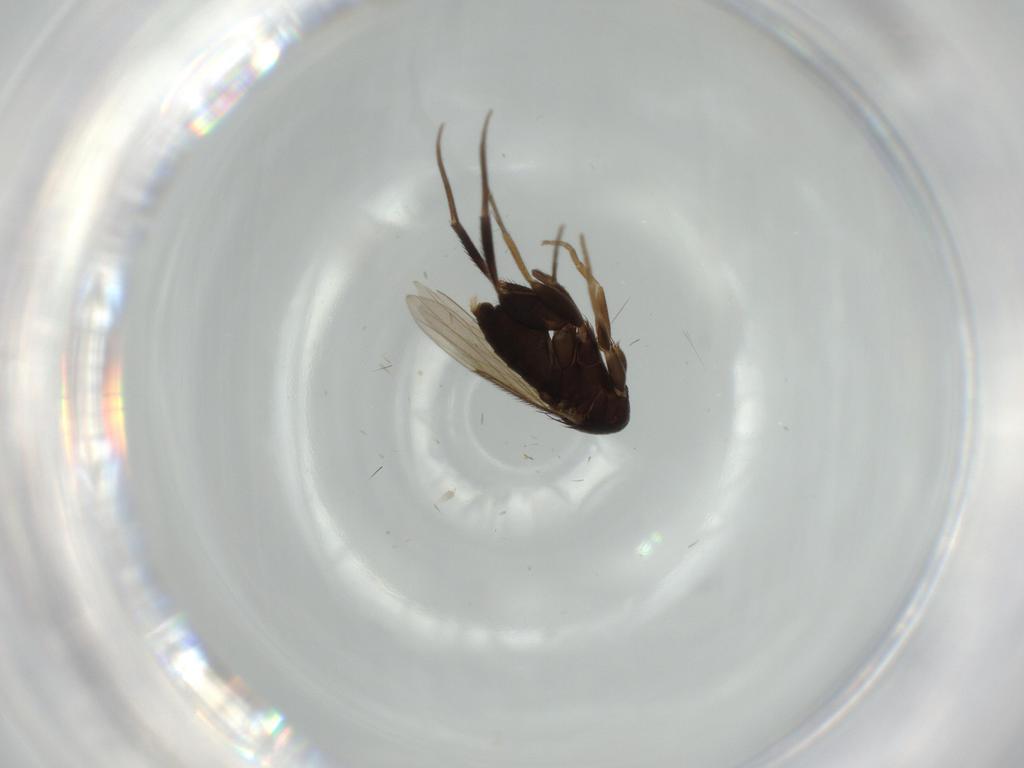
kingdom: Animalia
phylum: Arthropoda
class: Insecta
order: Diptera
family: Phoridae
